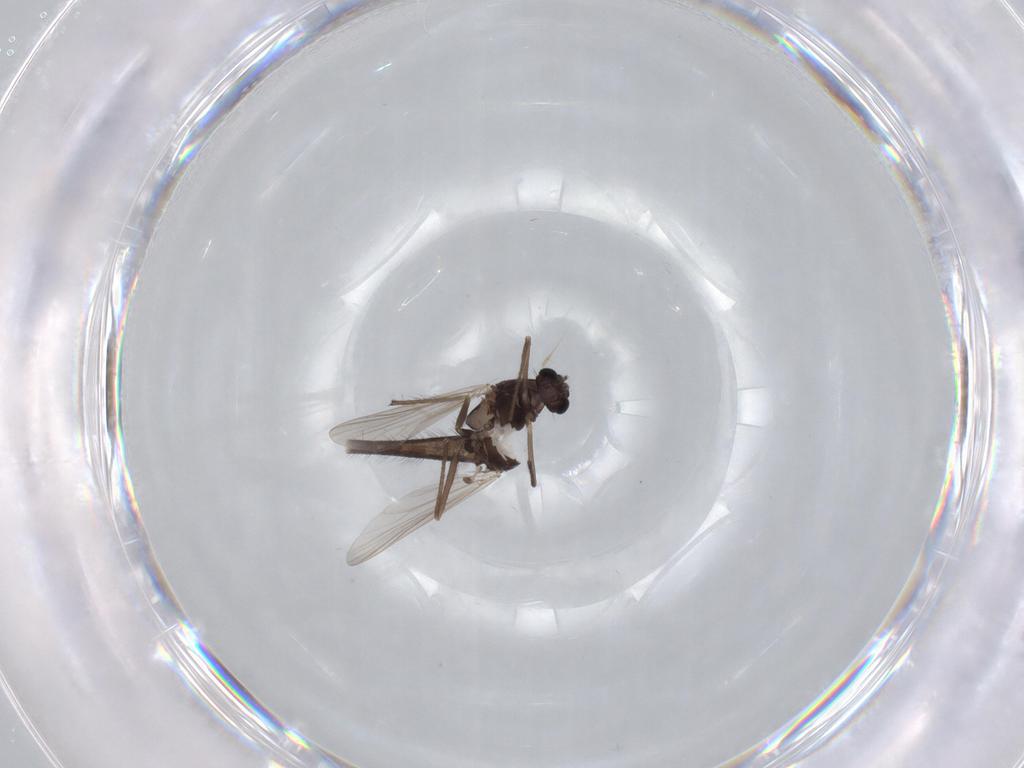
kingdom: Animalia
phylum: Arthropoda
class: Insecta
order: Diptera
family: Chironomidae
